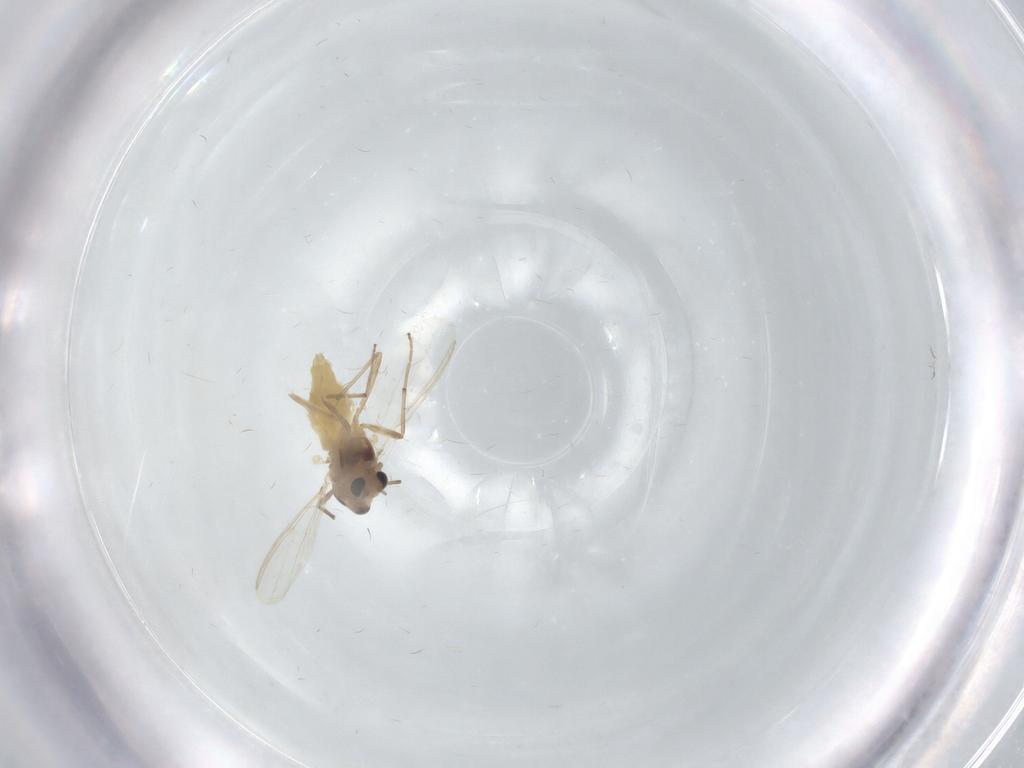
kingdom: Animalia
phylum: Arthropoda
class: Insecta
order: Diptera
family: Chironomidae
